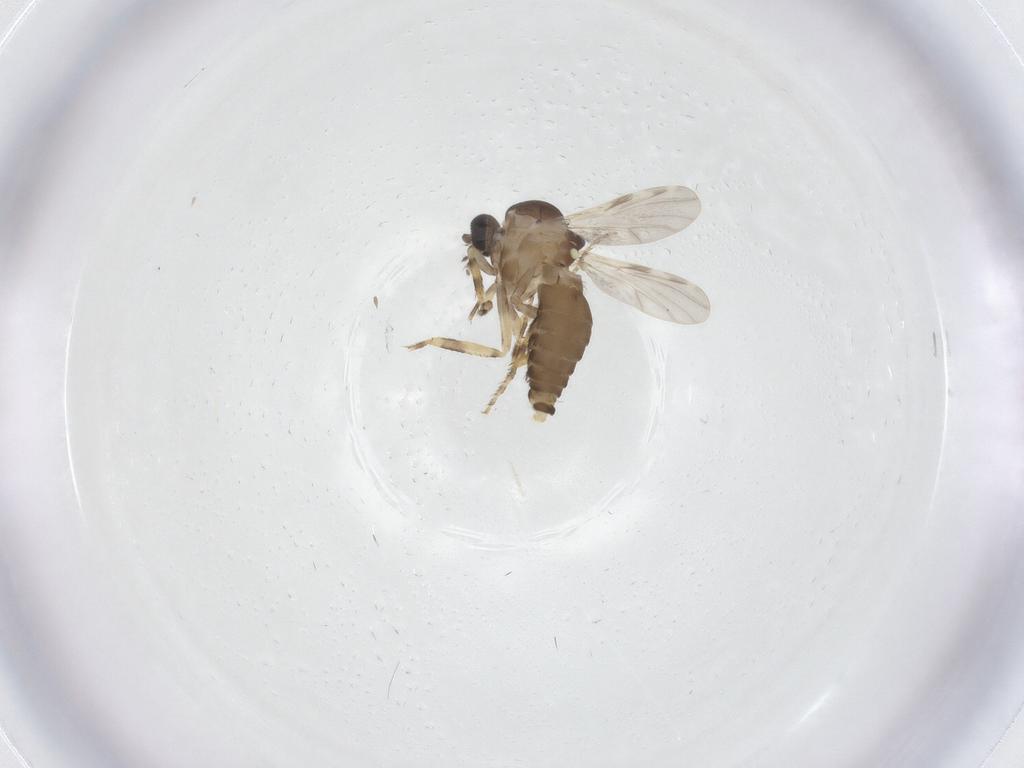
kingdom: Animalia
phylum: Arthropoda
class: Insecta
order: Diptera
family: Ceratopogonidae
